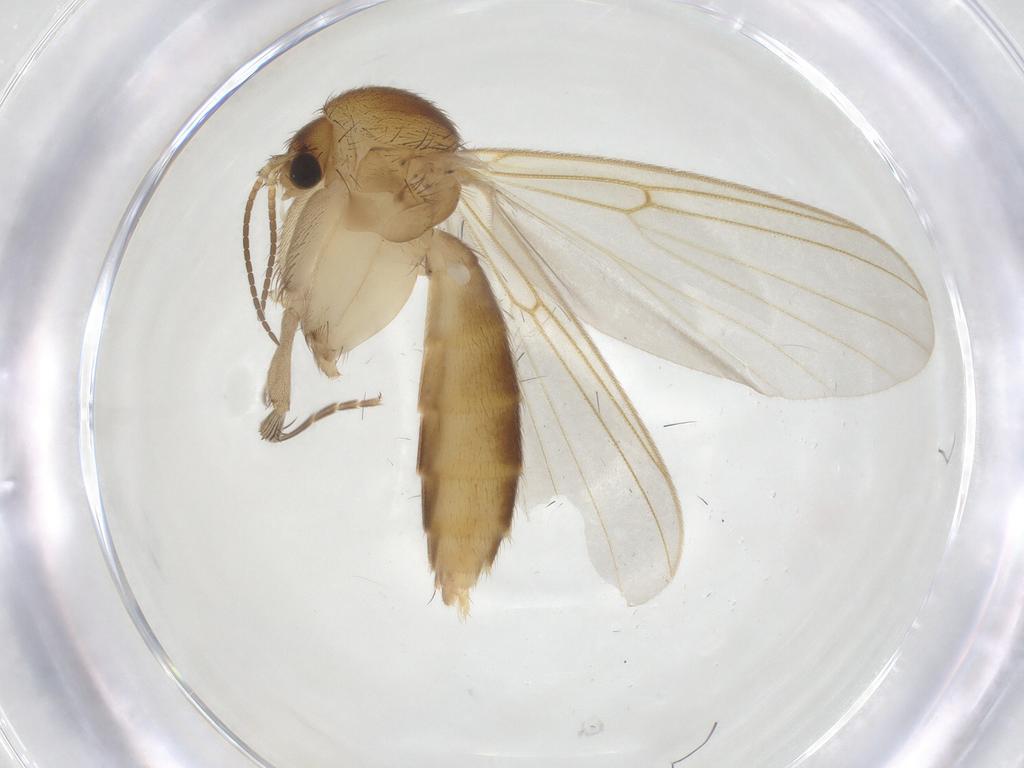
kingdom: Animalia
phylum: Arthropoda
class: Insecta
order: Diptera
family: Mycetophilidae
